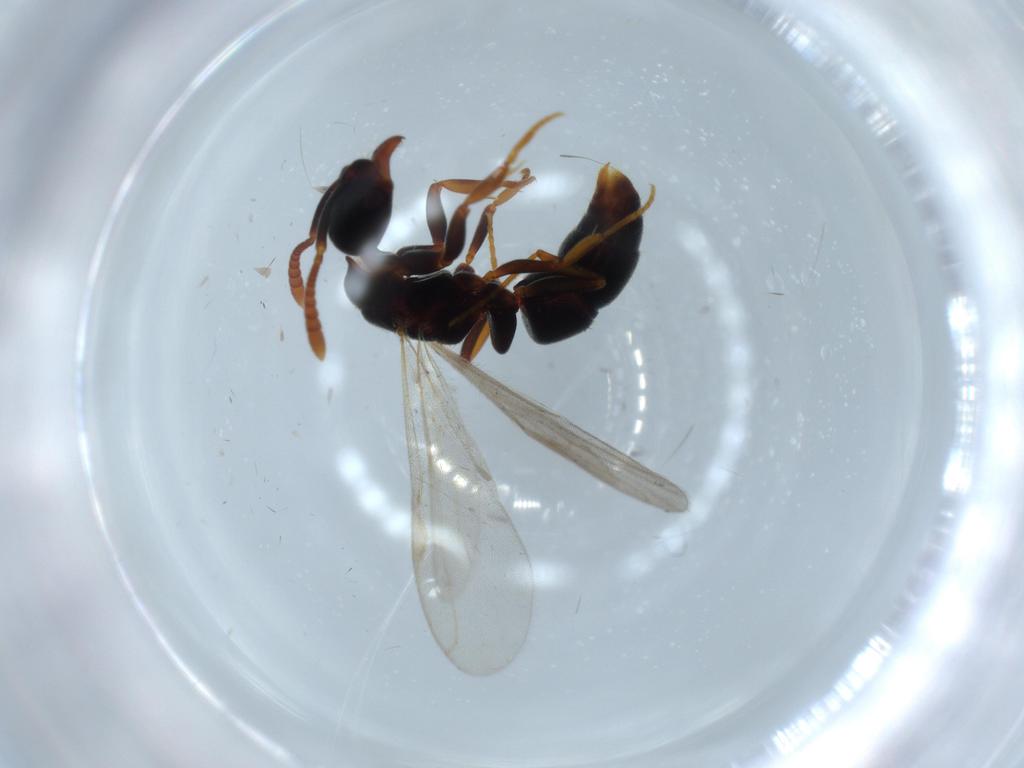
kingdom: Animalia
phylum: Arthropoda
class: Insecta
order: Hymenoptera
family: Formicidae
